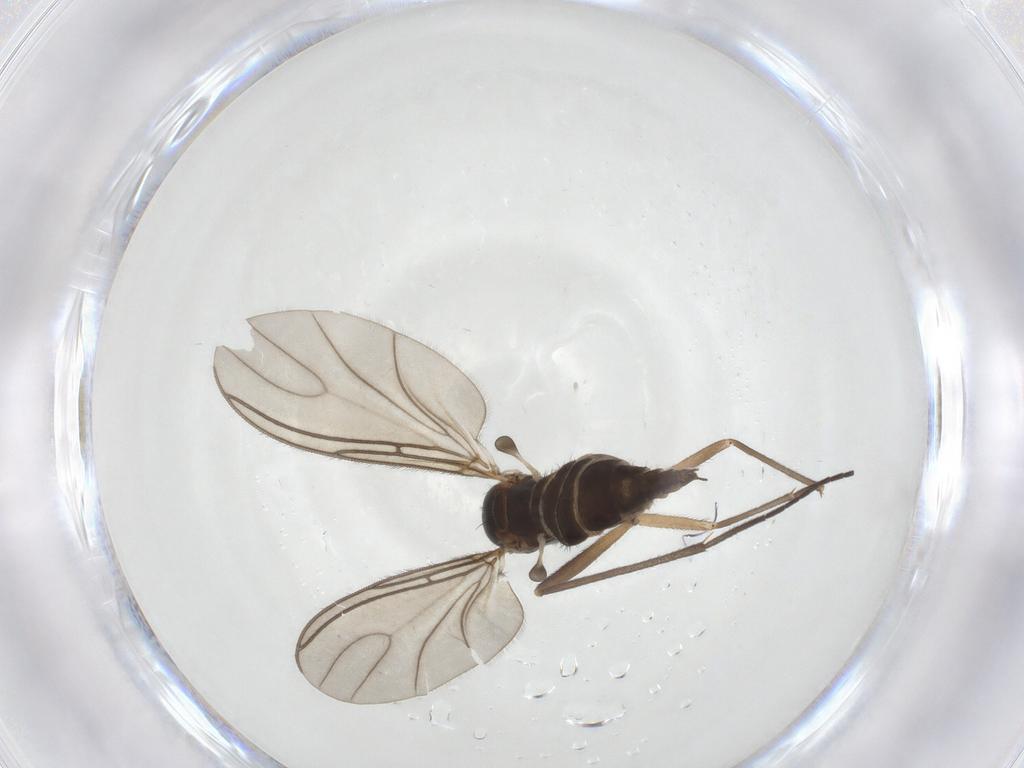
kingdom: Animalia
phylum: Arthropoda
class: Insecta
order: Diptera
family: Sciaridae
